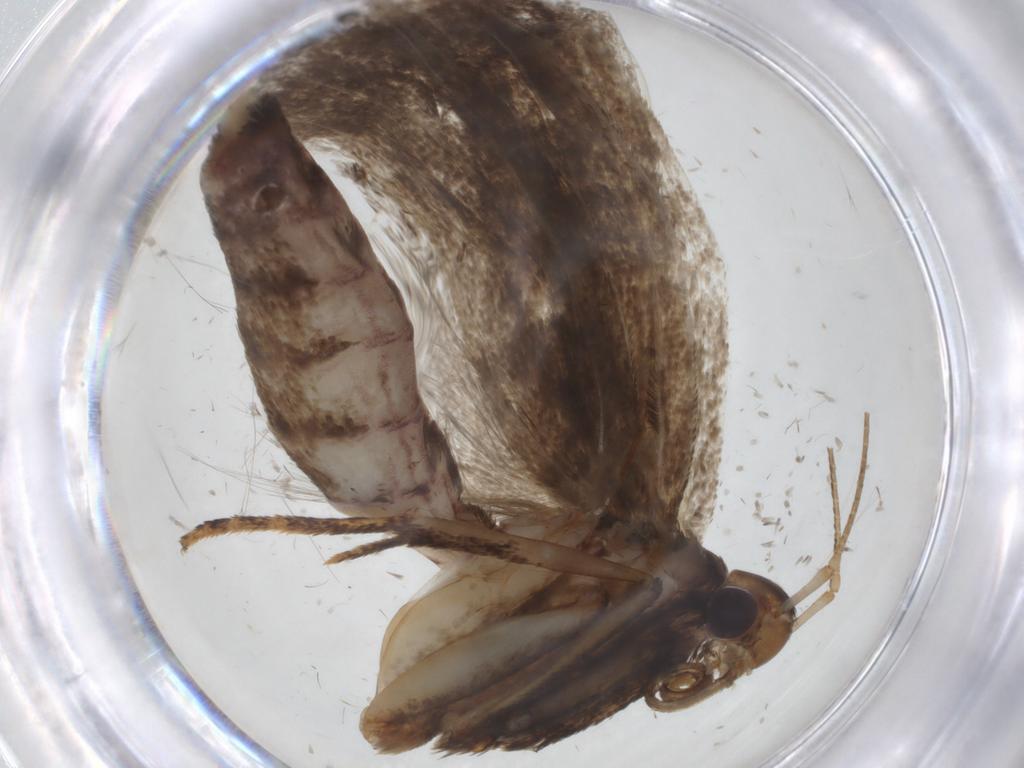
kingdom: Animalia
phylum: Arthropoda
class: Insecta
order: Lepidoptera
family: Gelechiidae
